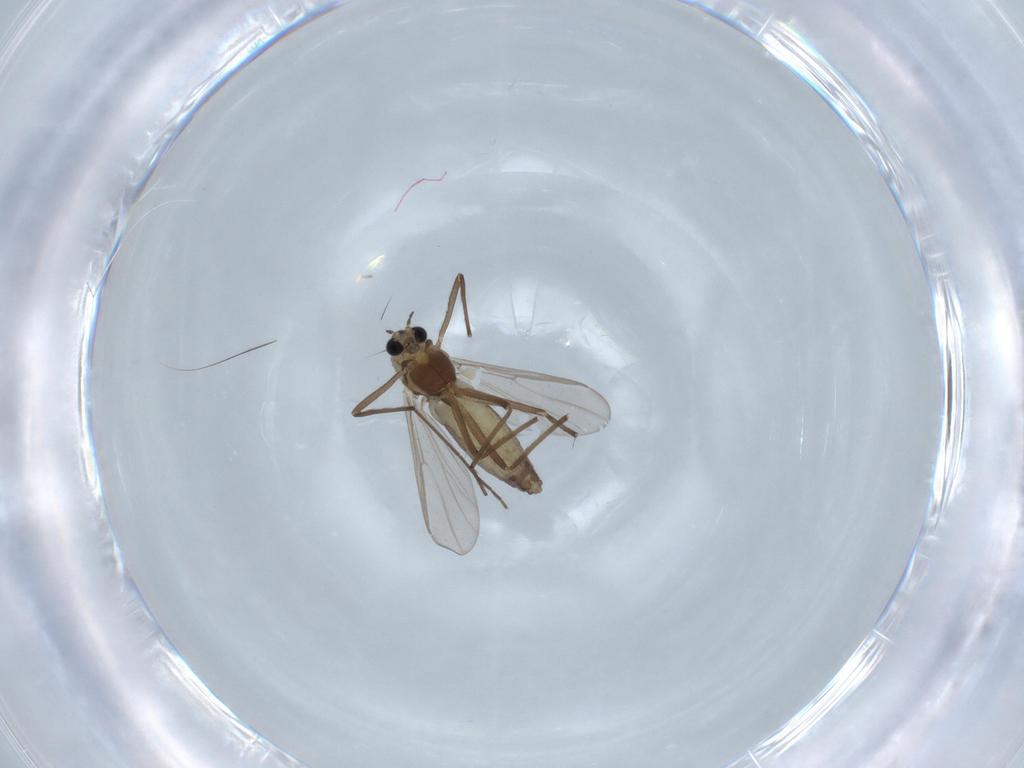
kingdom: Animalia
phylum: Arthropoda
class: Insecta
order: Diptera
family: Chironomidae
